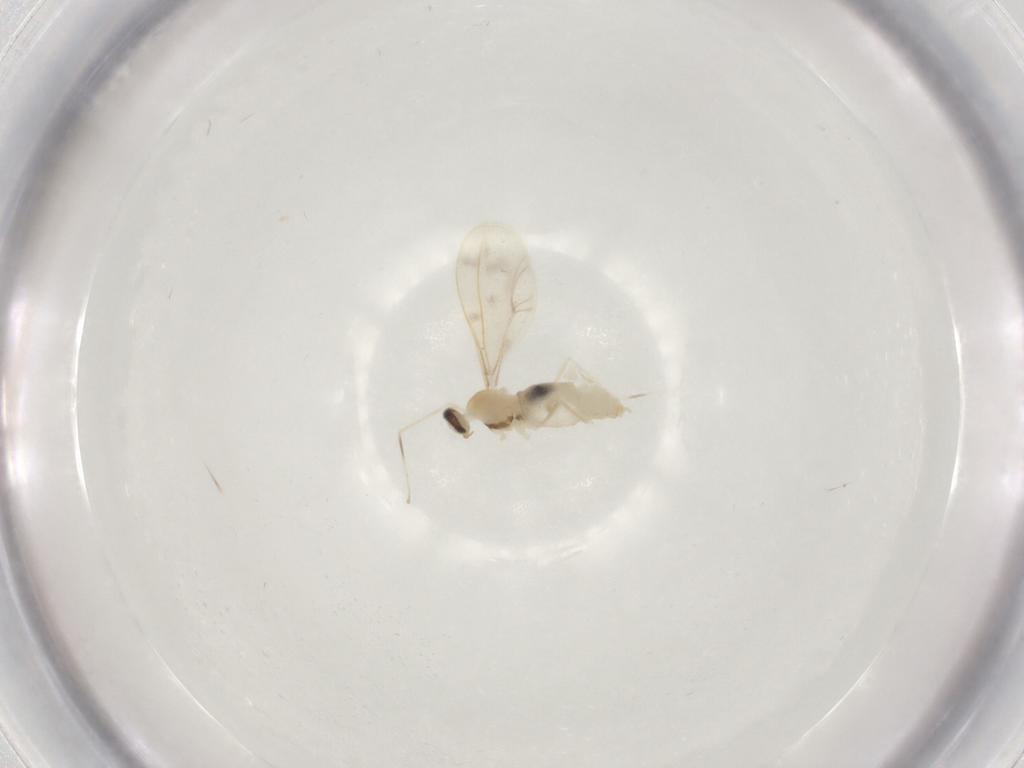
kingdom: Animalia
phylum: Arthropoda
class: Insecta
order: Diptera
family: Cecidomyiidae
